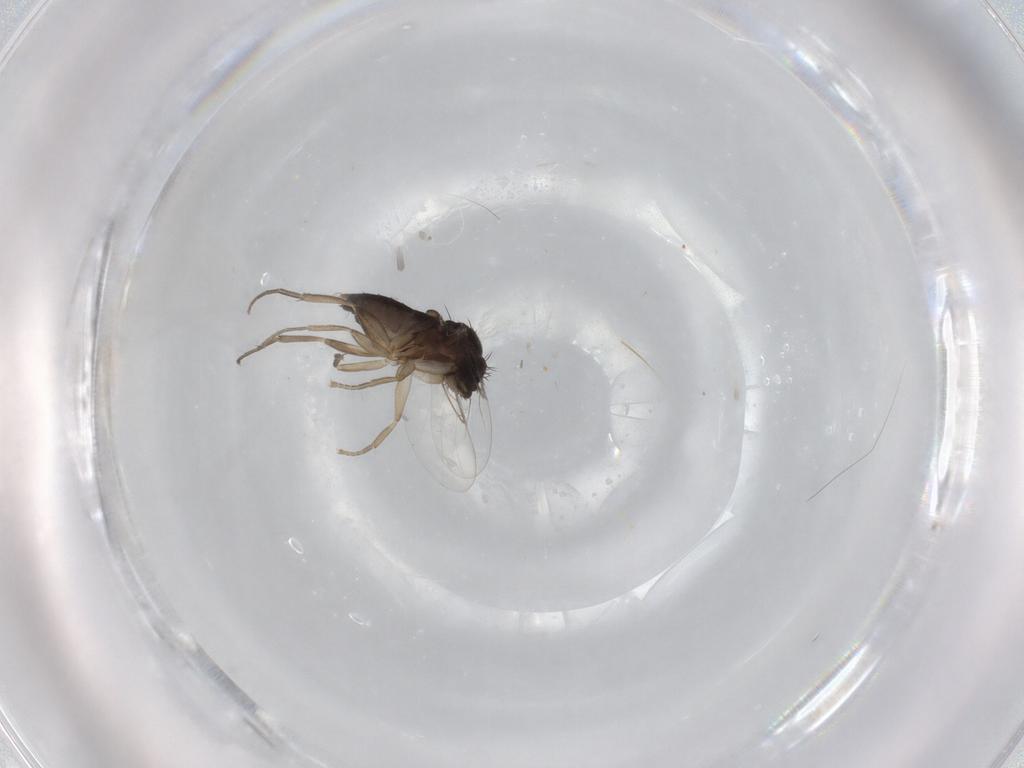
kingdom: Animalia
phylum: Arthropoda
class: Insecta
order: Diptera
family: Phoridae
